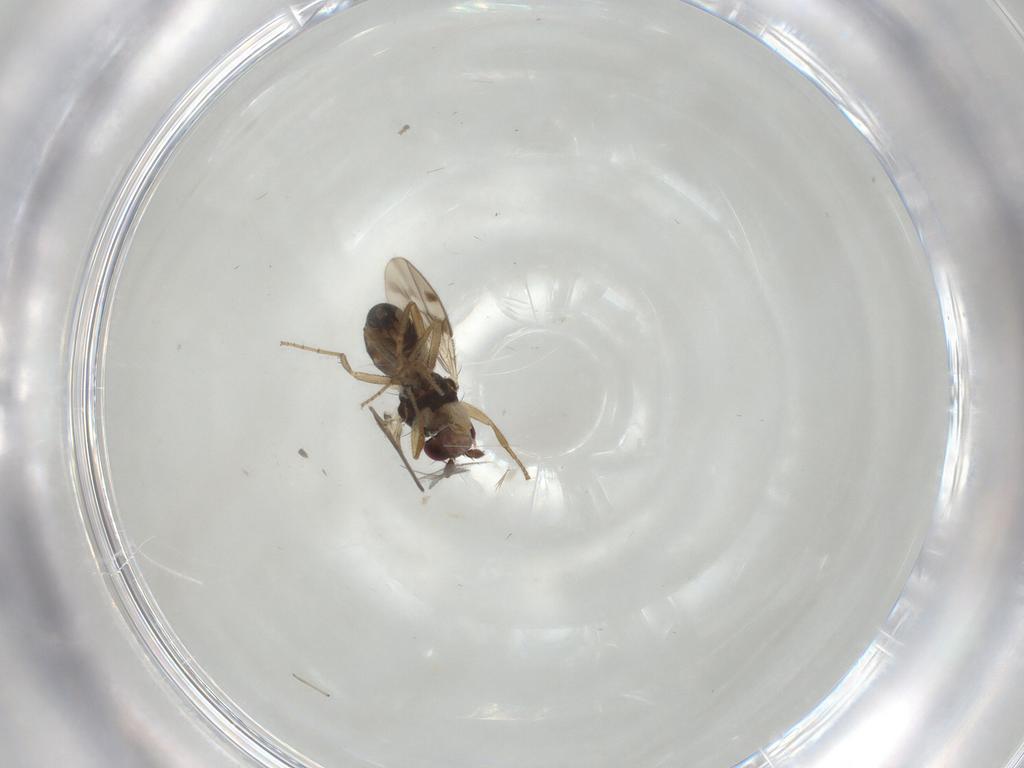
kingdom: Animalia
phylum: Arthropoda
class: Insecta
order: Diptera
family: Sphaeroceridae
